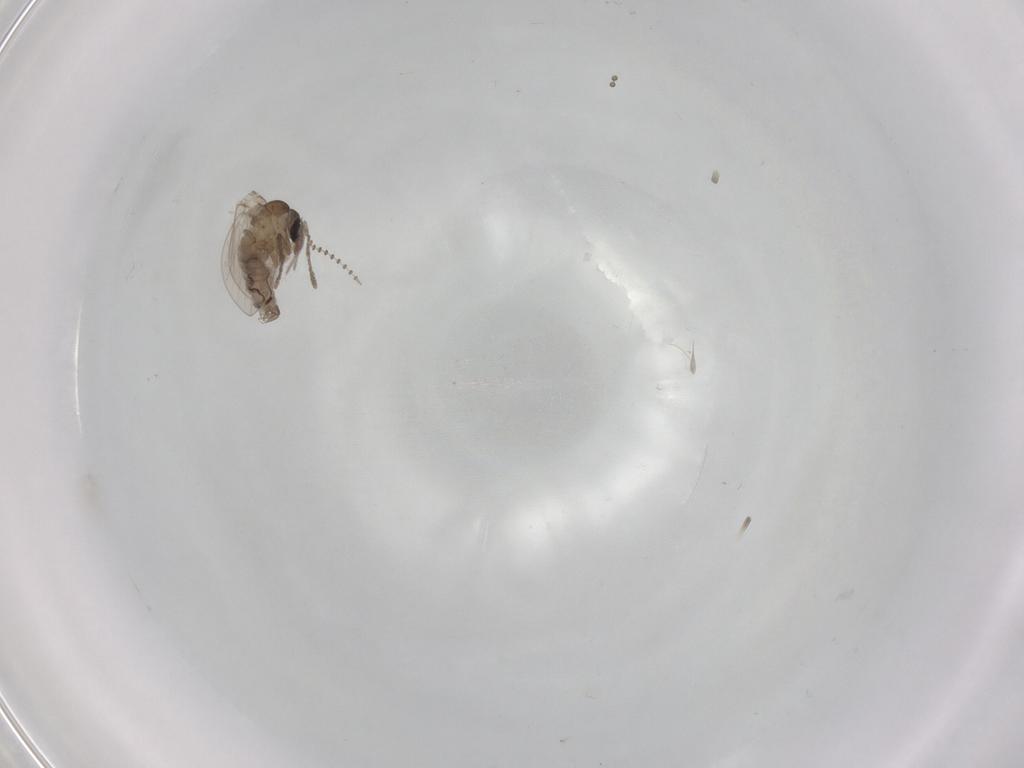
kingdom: Animalia
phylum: Arthropoda
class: Insecta
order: Diptera
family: Psychodidae
